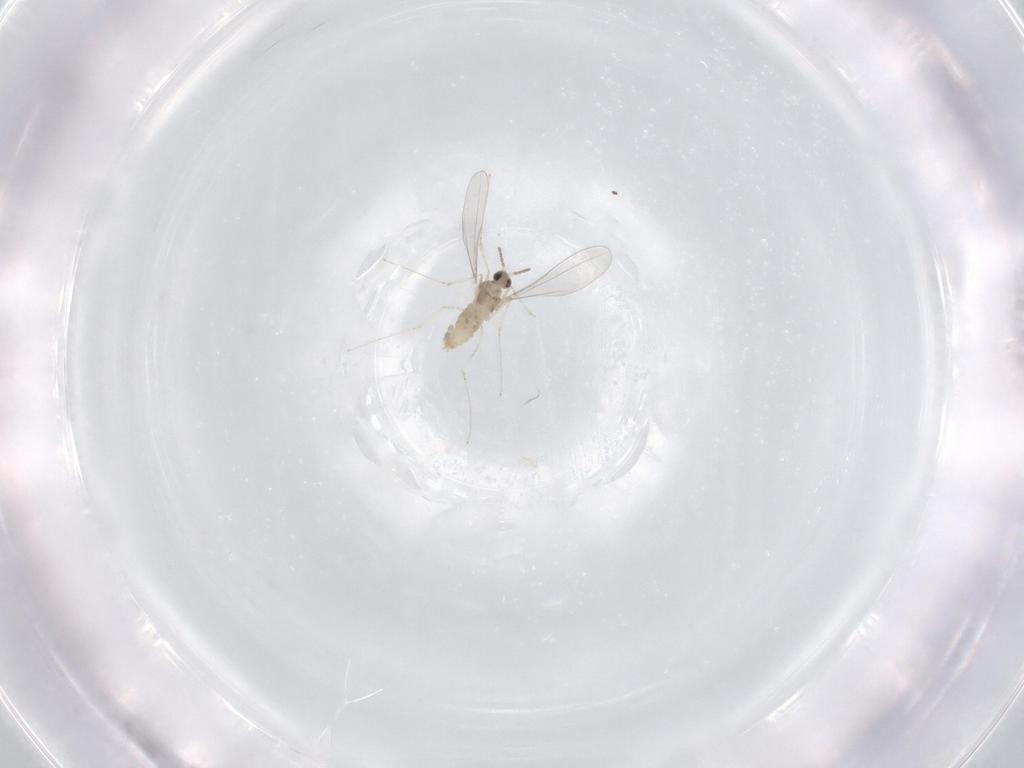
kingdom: Animalia
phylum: Arthropoda
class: Insecta
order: Diptera
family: Cecidomyiidae
